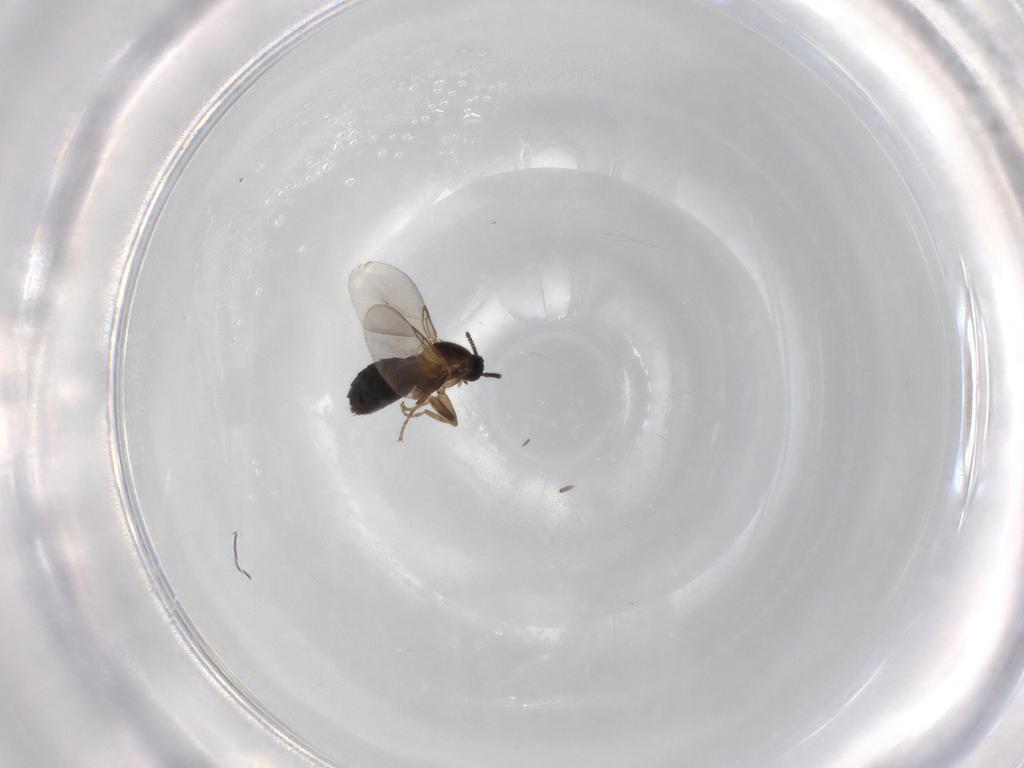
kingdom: Animalia
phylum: Arthropoda
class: Insecta
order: Diptera
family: Scatopsidae
